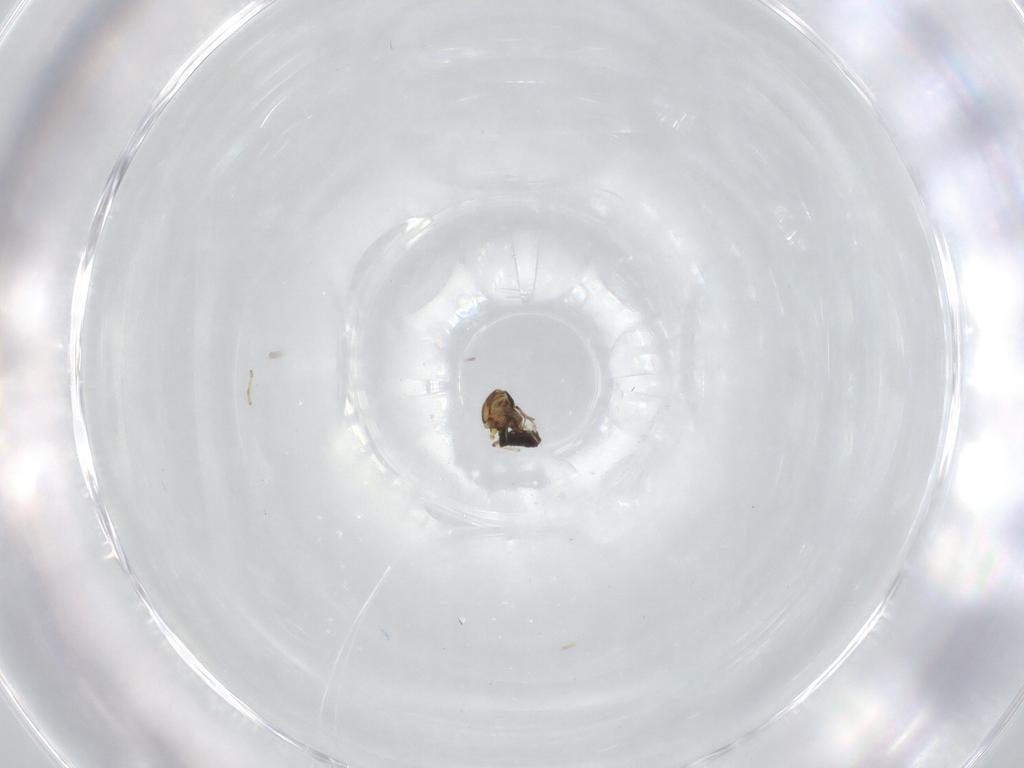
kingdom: Animalia
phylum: Arthropoda
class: Insecta
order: Diptera
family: Ceratopogonidae
